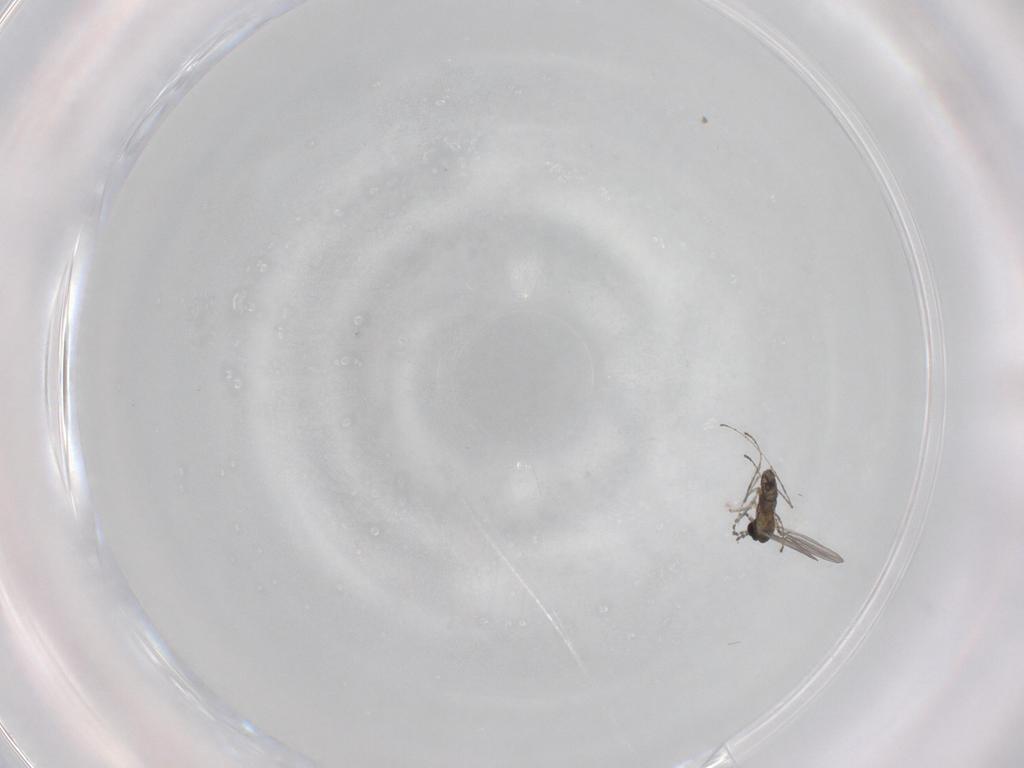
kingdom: Animalia
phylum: Arthropoda
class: Insecta
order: Diptera
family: Cecidomyiidae
